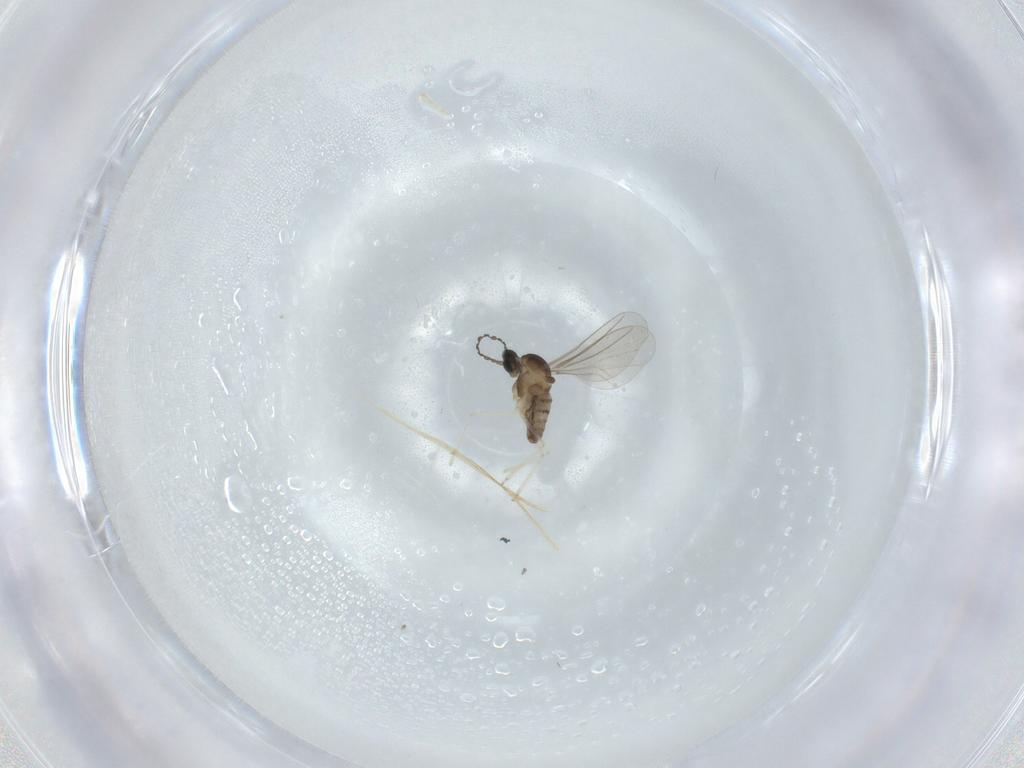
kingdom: Animalia
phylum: Arthropoda
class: Insecta
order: Diptera
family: Cecidomyiidae
